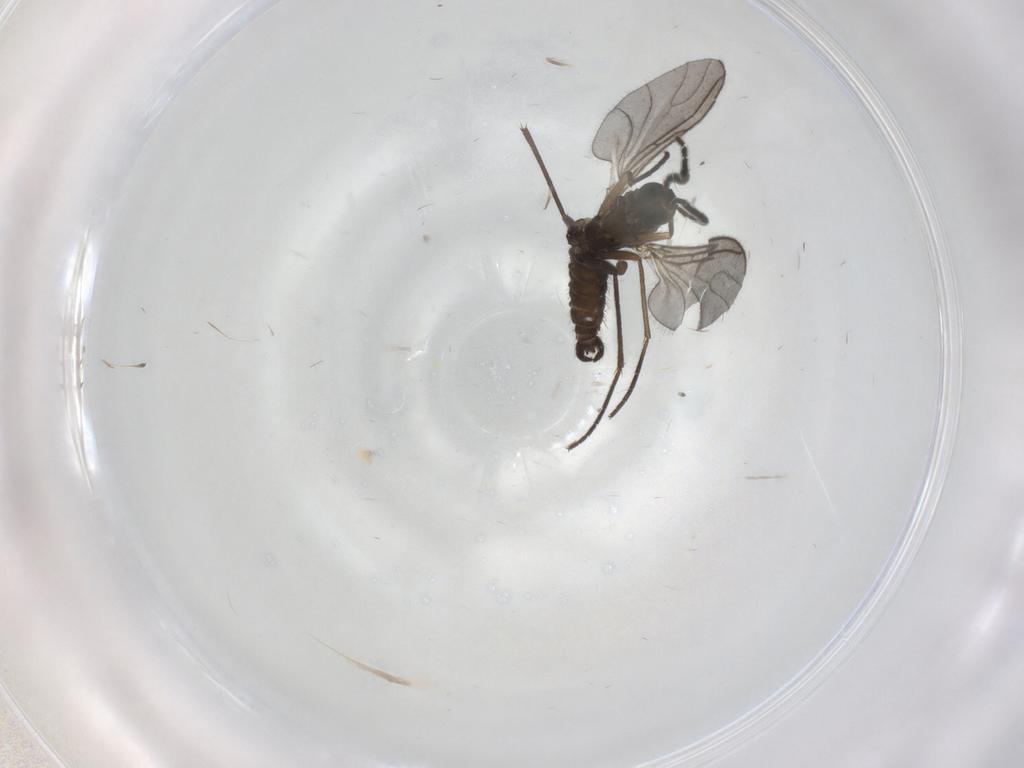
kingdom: Animalia
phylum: Arthropoda
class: Insecta
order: Diptera
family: Sciaridae
